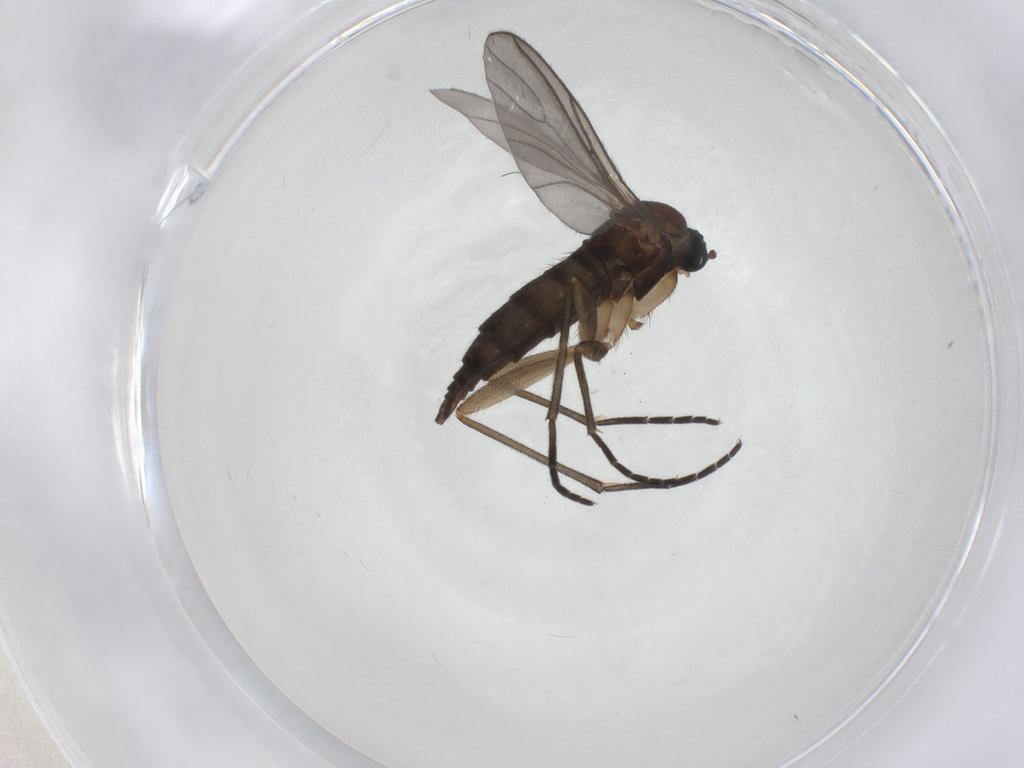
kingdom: Animalia
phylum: Arthropoda
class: Insecta
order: Diptera
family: Sciaridae
